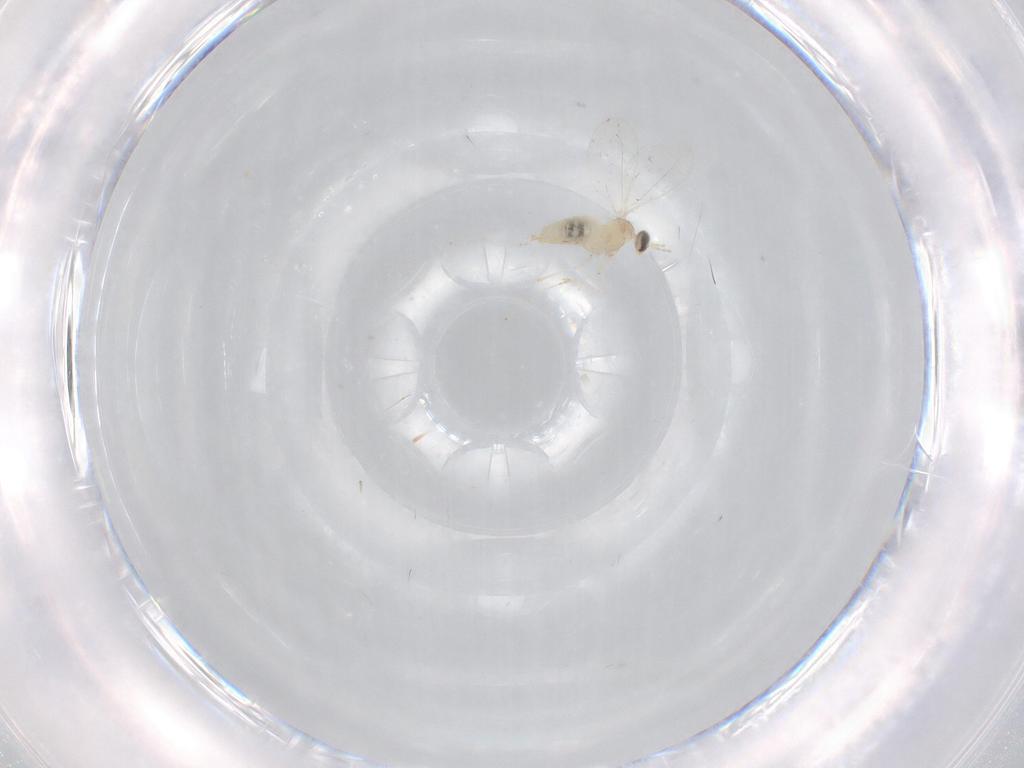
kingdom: Animalia
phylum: Arthropoda
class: Insecta
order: Diptera
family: Cecidomyiidae
